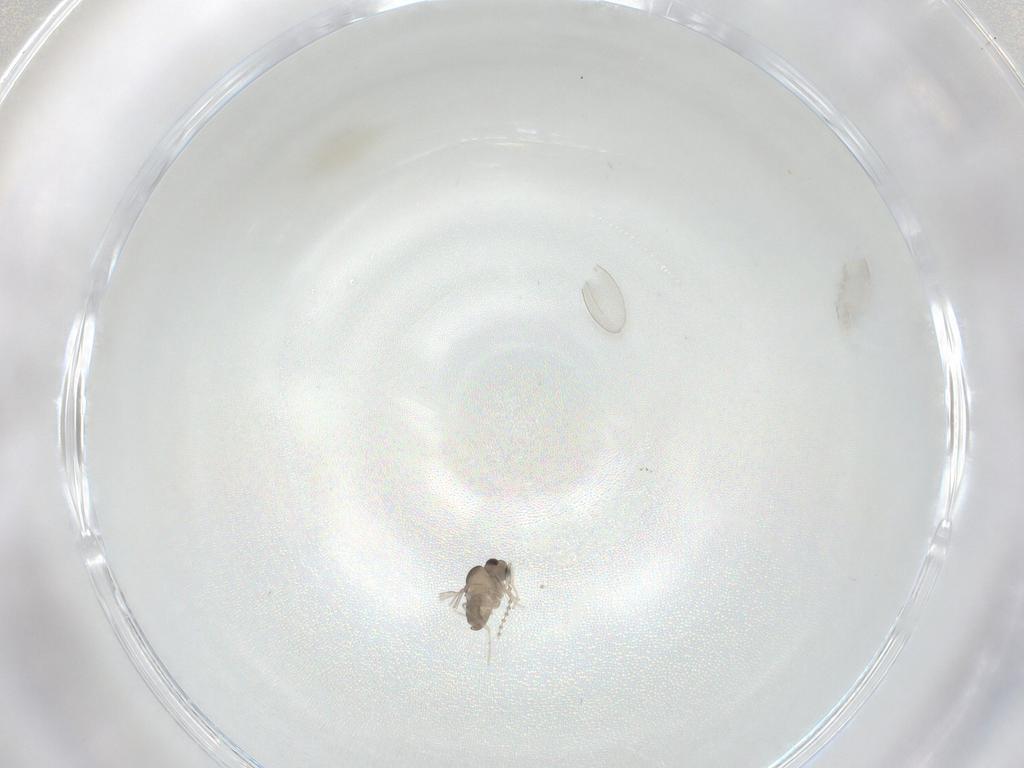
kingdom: Animalia
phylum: Arthropoda
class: Insecta
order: Diptera
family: Cecidomyiidae
